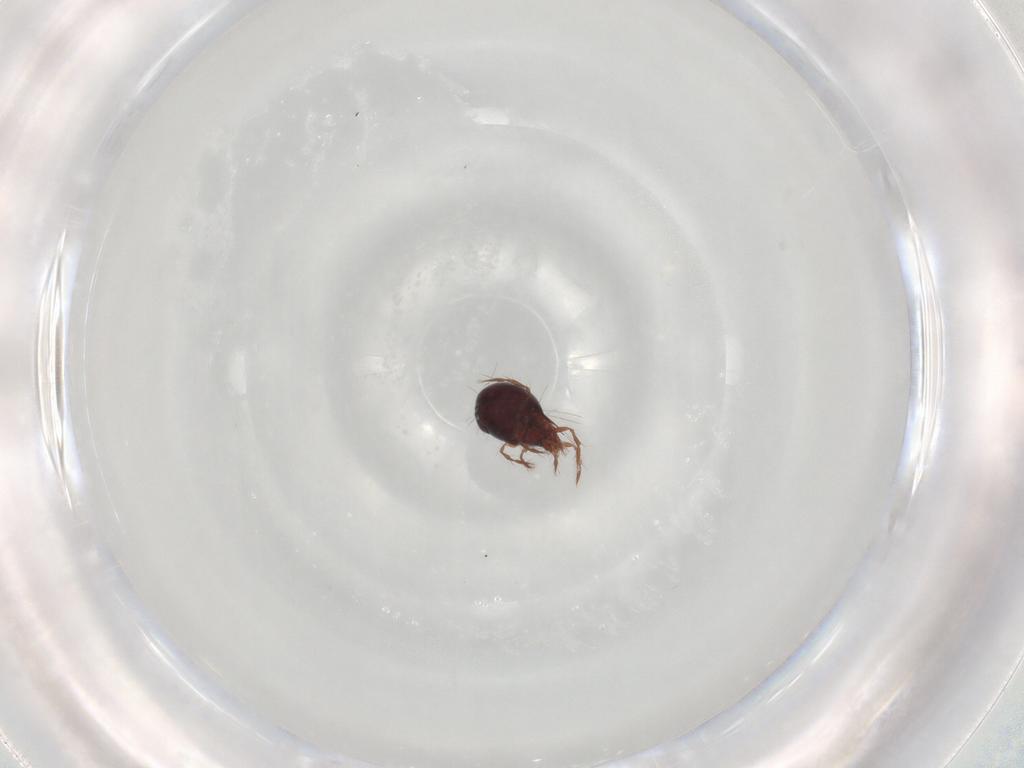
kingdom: Animalia
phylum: Arthropoda
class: Arachnida
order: Sarcoptiformes
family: Ceratoppiidae
